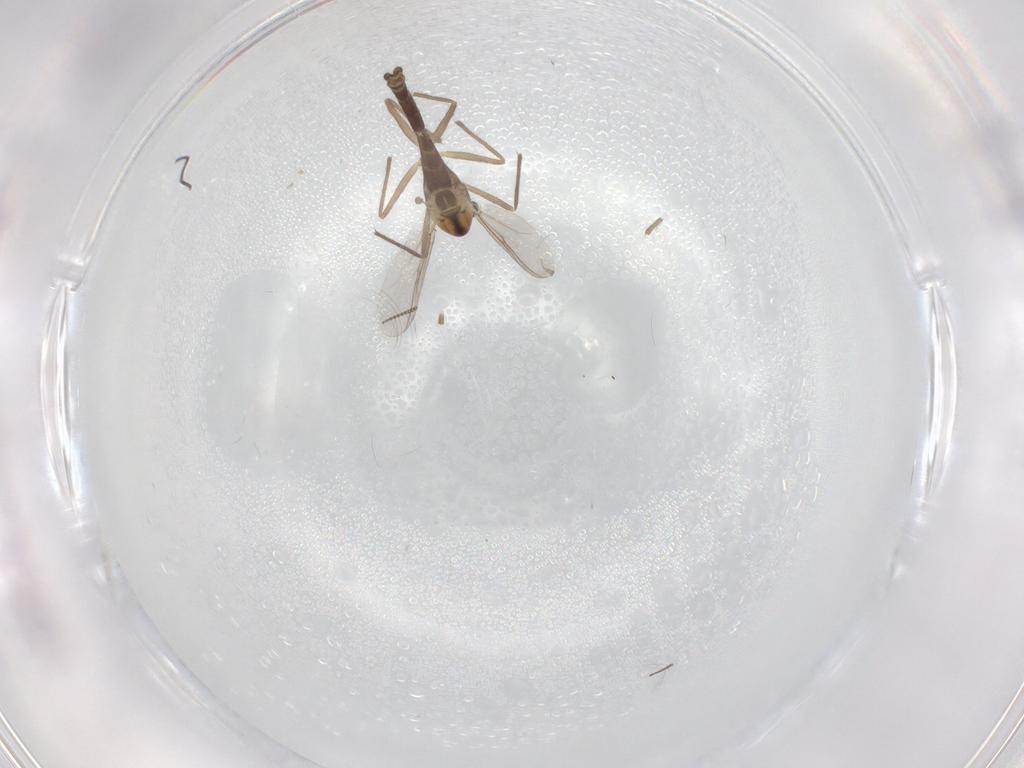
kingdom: Animalia
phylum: Arthropoda
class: Insecta
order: Diptera
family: Chironomidae
